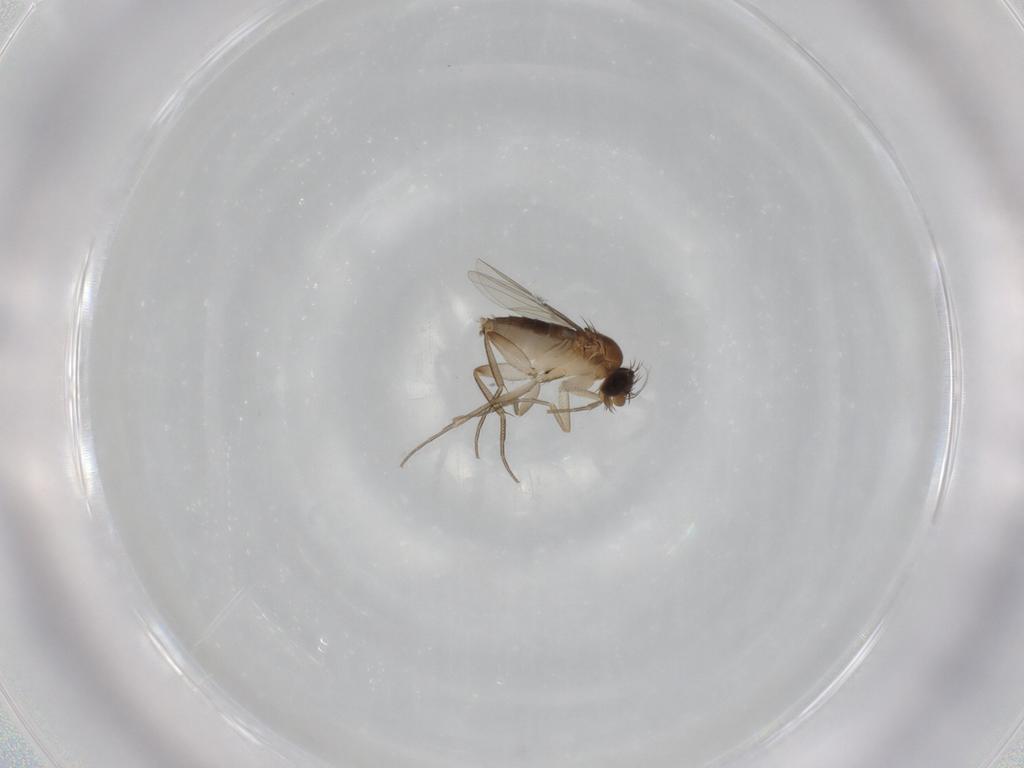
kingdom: Animalia
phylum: Arthropoda
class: Insecta
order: Diptera
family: Phoridae
